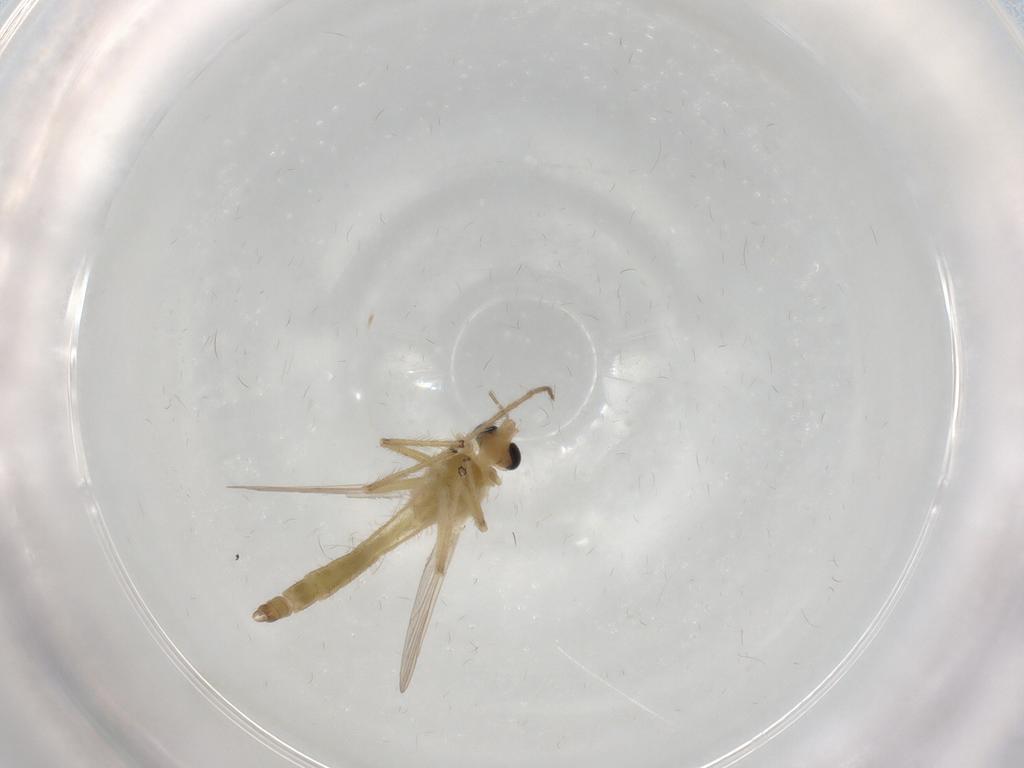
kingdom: Animalia
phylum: Arthropoda
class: Insecta
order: Diptera
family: Chironomidae
